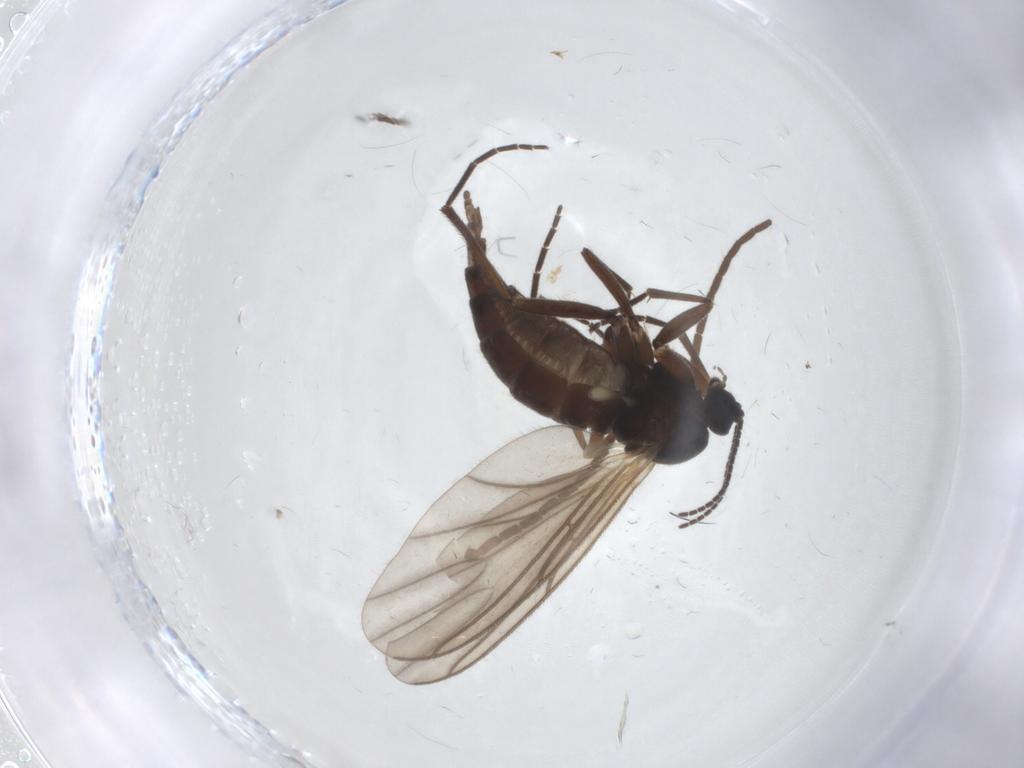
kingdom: Animalia
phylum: Arthropoda
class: Insecta
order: Diptera
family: Sciaridae
